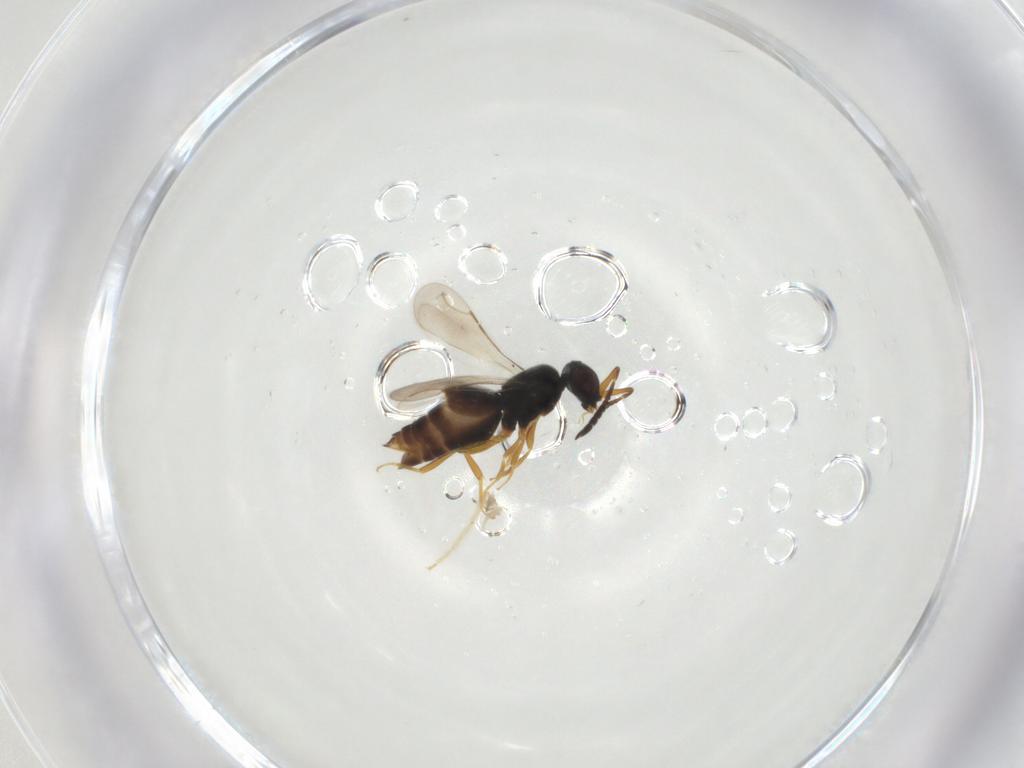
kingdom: Animalia
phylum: Arthropoda
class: Insecta
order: Hymenoptera
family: Ceraphronidae
